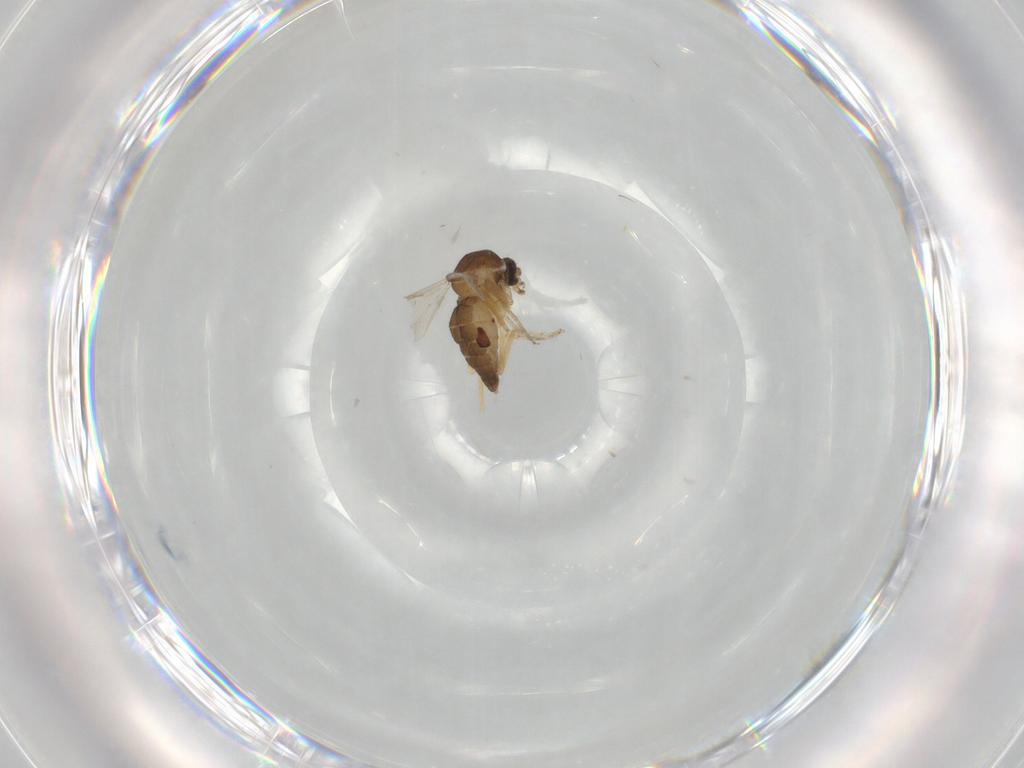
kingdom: Animalia
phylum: Arthropoda
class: Insecta
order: Diptera
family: Ceratopogonidae
